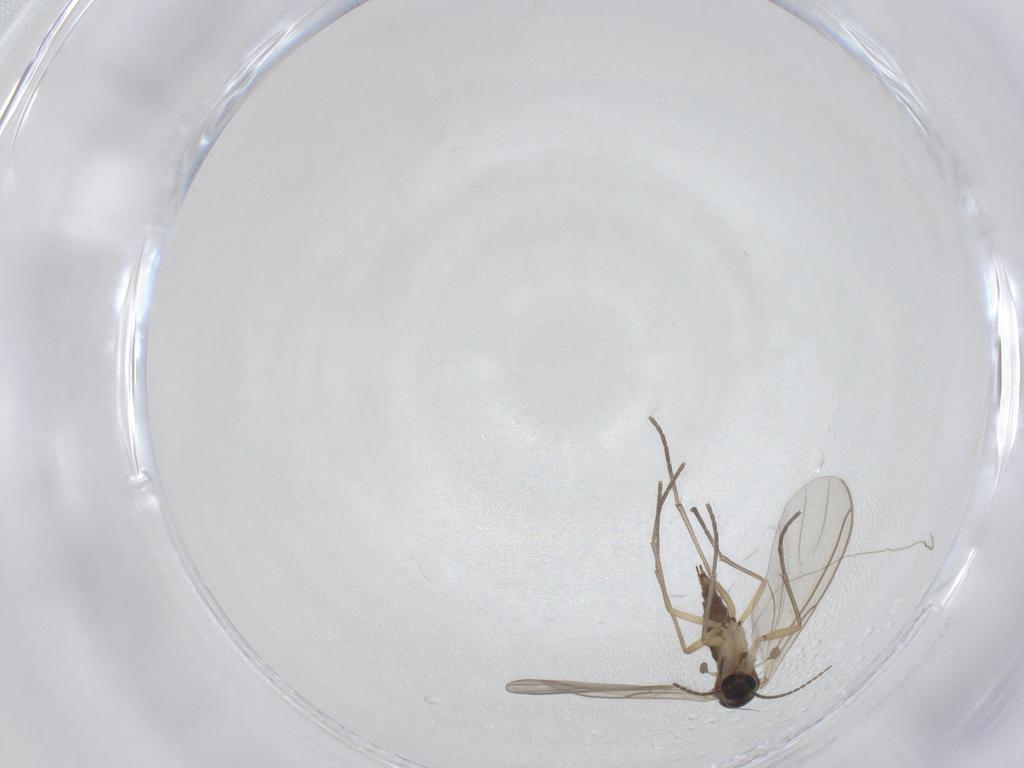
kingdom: Animalia
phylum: Arthropoda
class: Insecta
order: Diptera
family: Sciaridae
